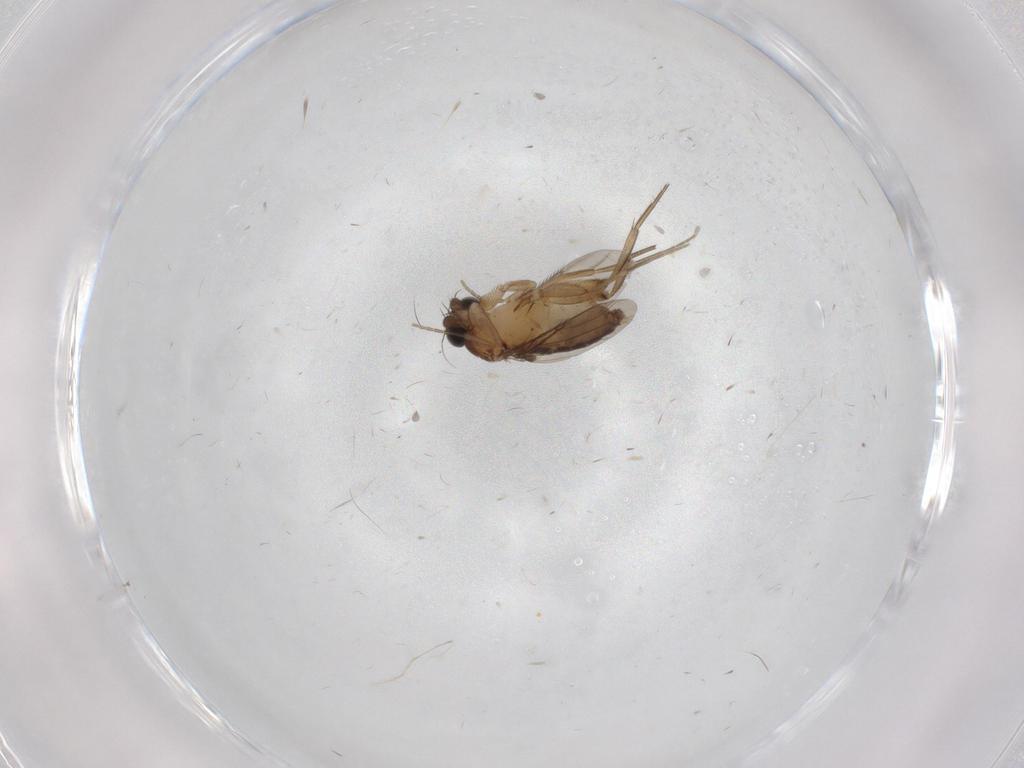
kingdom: Animalia
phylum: Arthropoda
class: Insecta
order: Diptera
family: Phoridae
